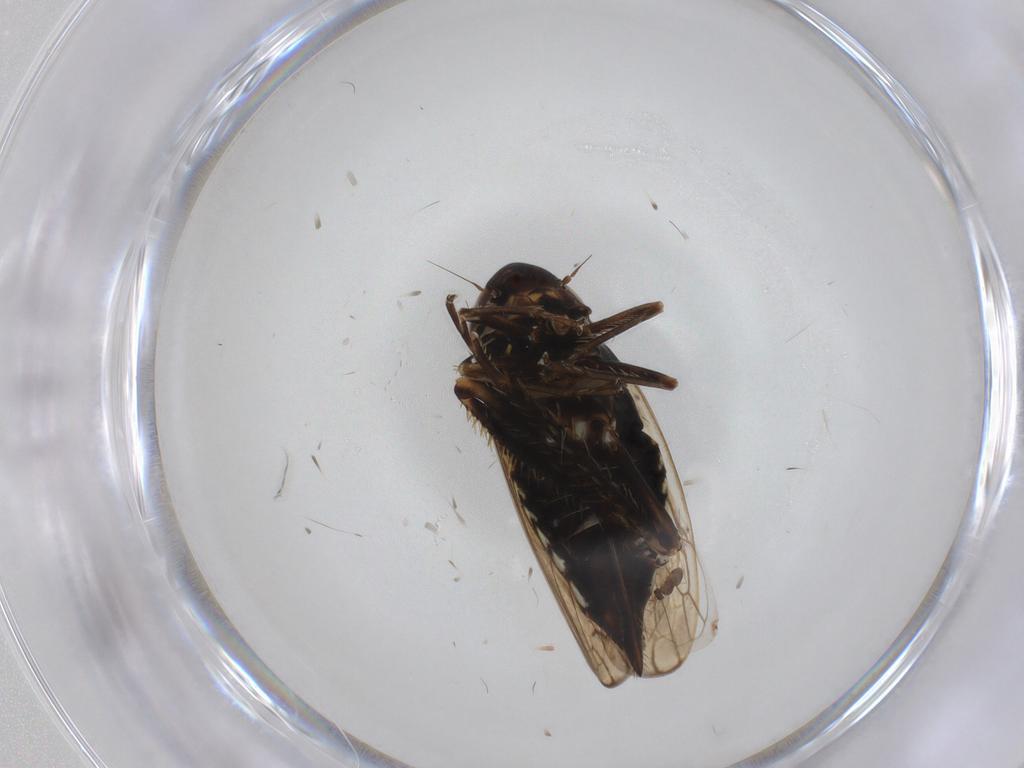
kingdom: Animalia
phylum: Arthropoda
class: Insecta
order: Hemiptera
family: Cicadellidae
